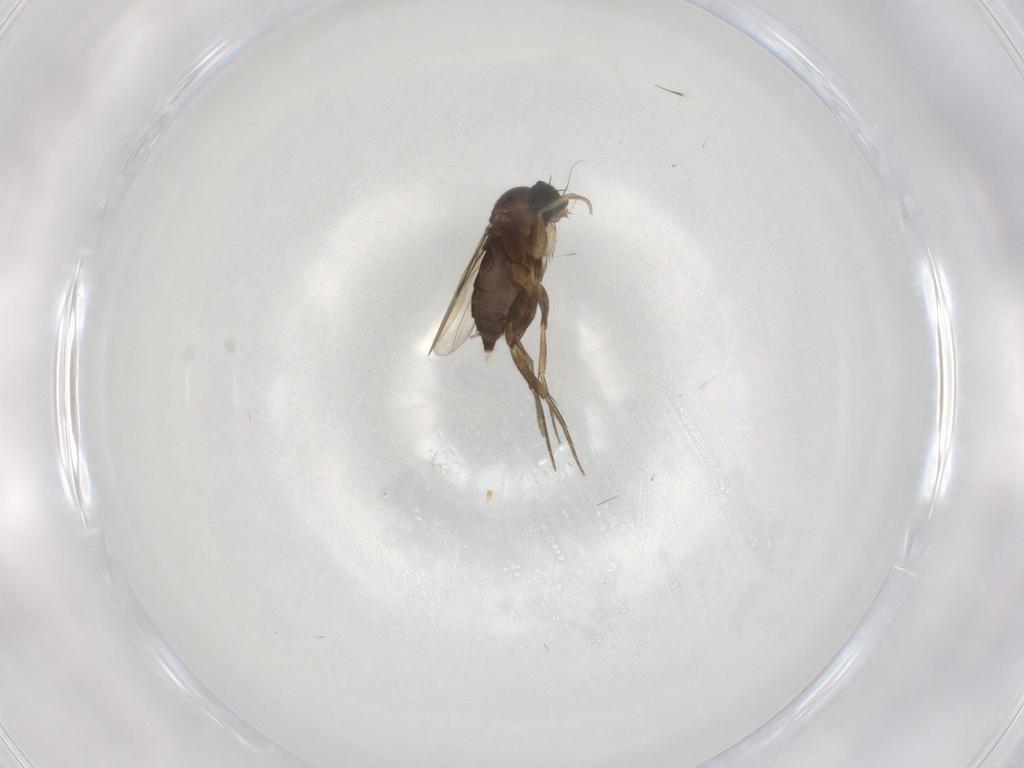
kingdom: Animalia
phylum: Arthropoda
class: Insecta
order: Diptera
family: Phoridae
